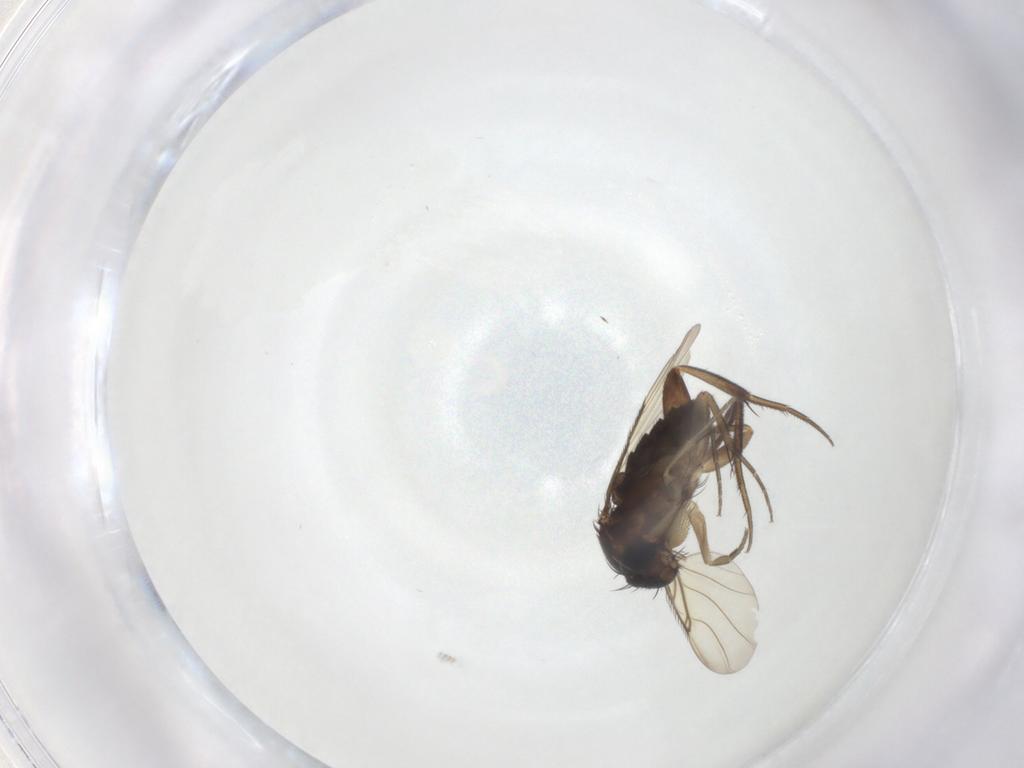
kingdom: Animalia
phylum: Arthropoda
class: Insecta
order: Diptera
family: Phoridae
